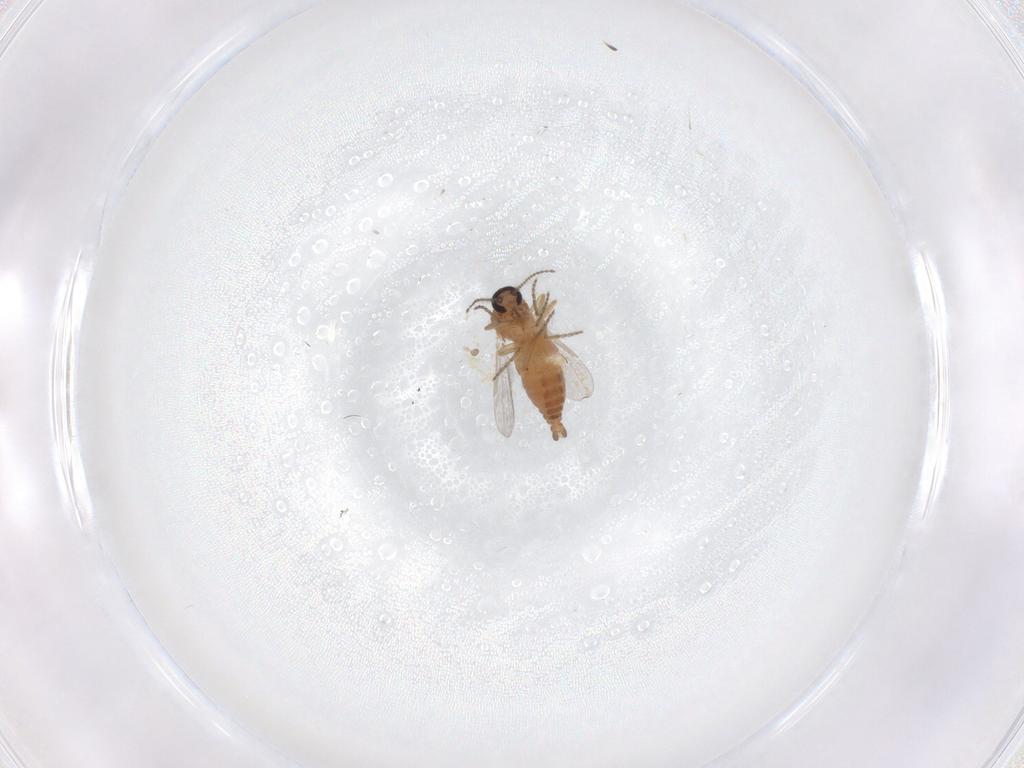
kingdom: Animalia
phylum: Arthropoda
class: Insecta
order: Diptera
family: Ceratopogonidae
